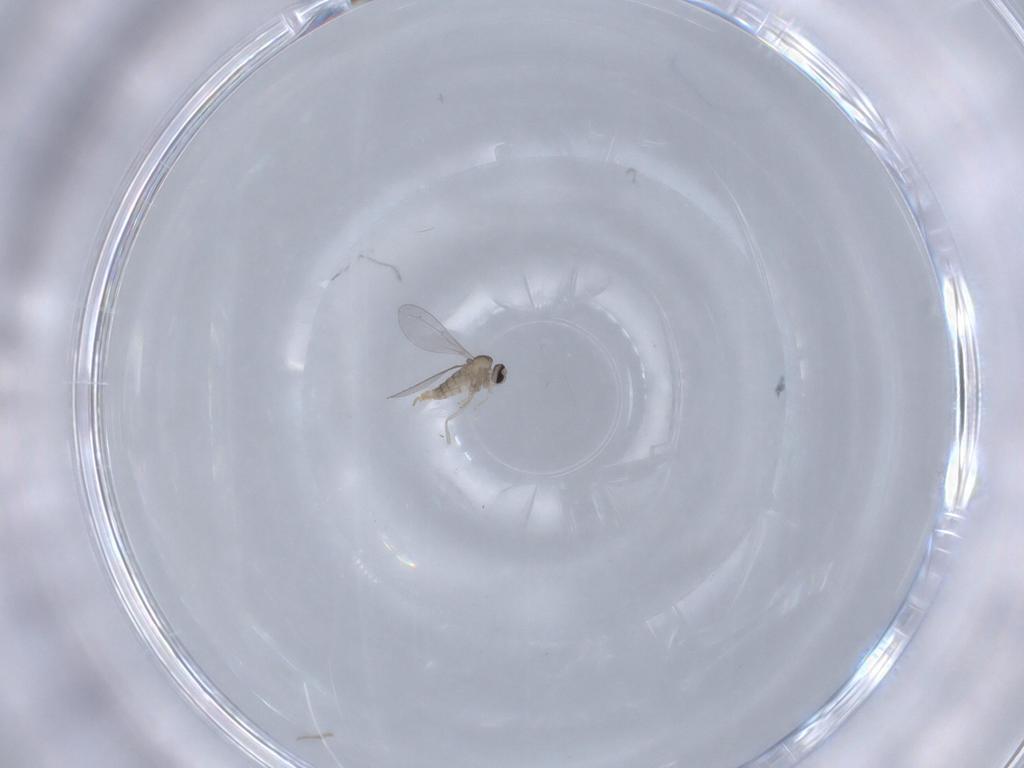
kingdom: Animalia
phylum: Arthropoda
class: Insecta
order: Diptera
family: Cecidomyiidae
